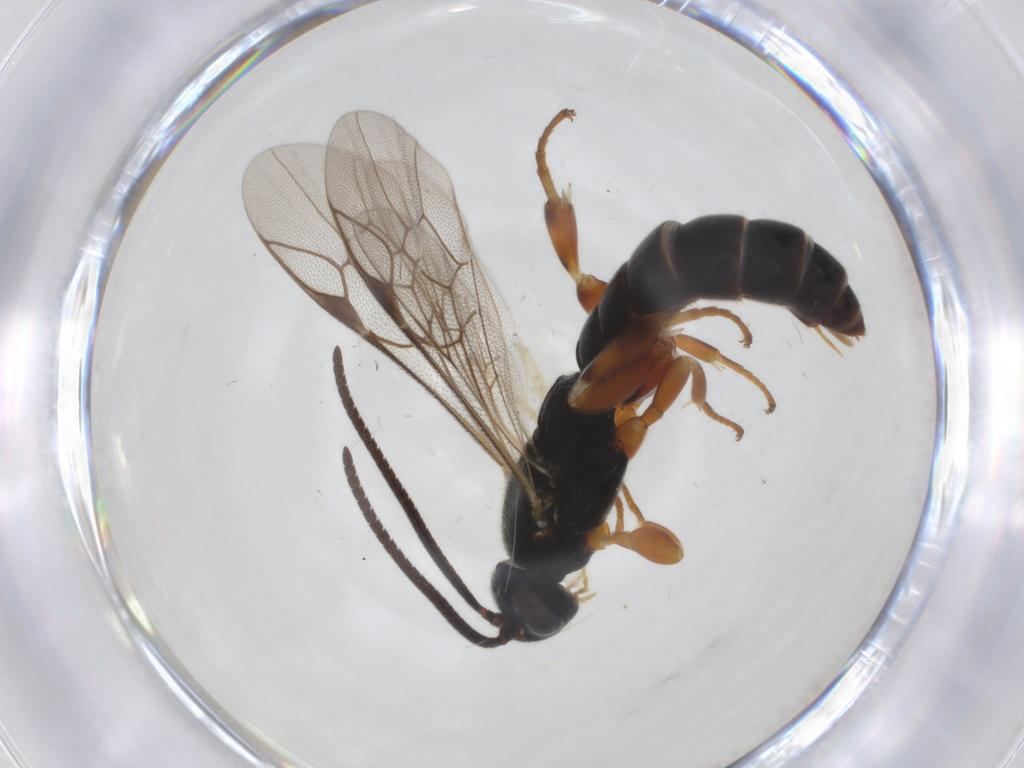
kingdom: Animalia
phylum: Arthropoda
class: Insecta
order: Hymenoptera
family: Ichneumonidae
